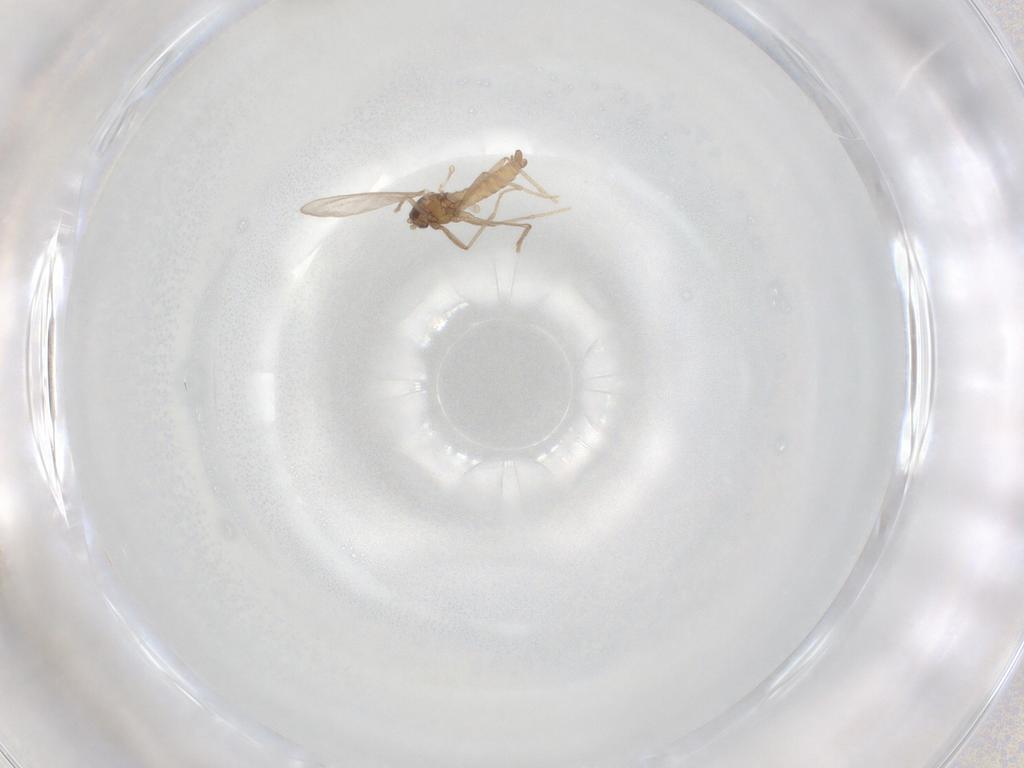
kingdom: Animalia
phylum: Arthropoda
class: Insecta
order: Diptera
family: Cecidomyiidae
